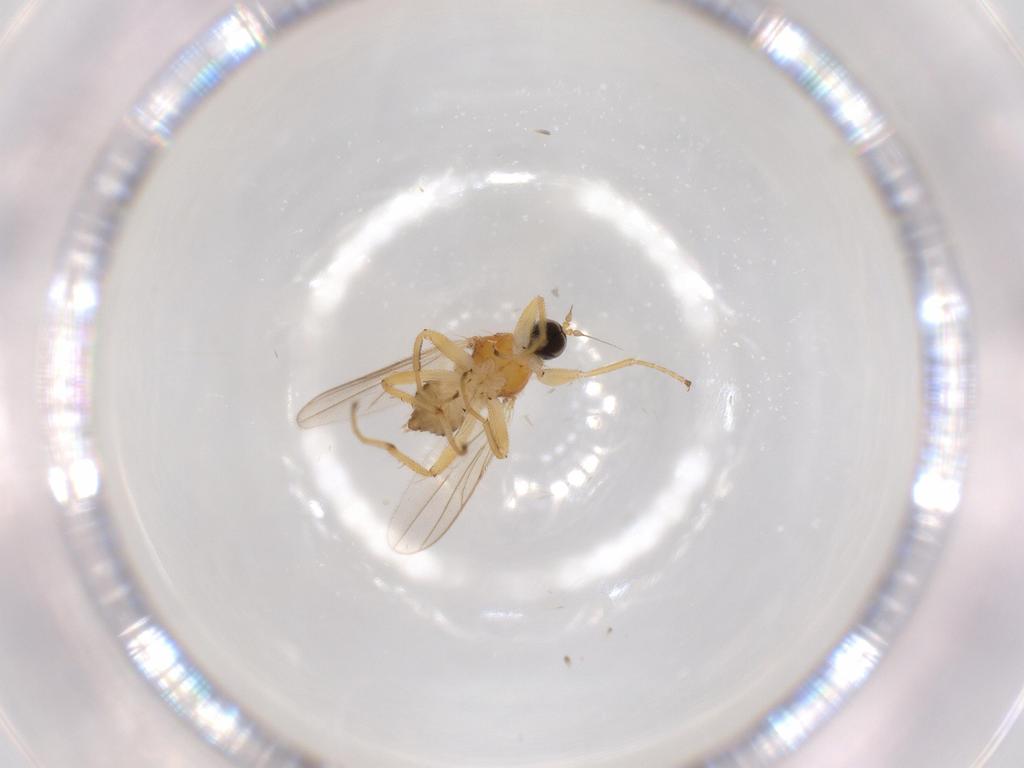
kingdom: Animalia
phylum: Arthropoda
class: Insecta
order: Diptera
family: Hybotidae
